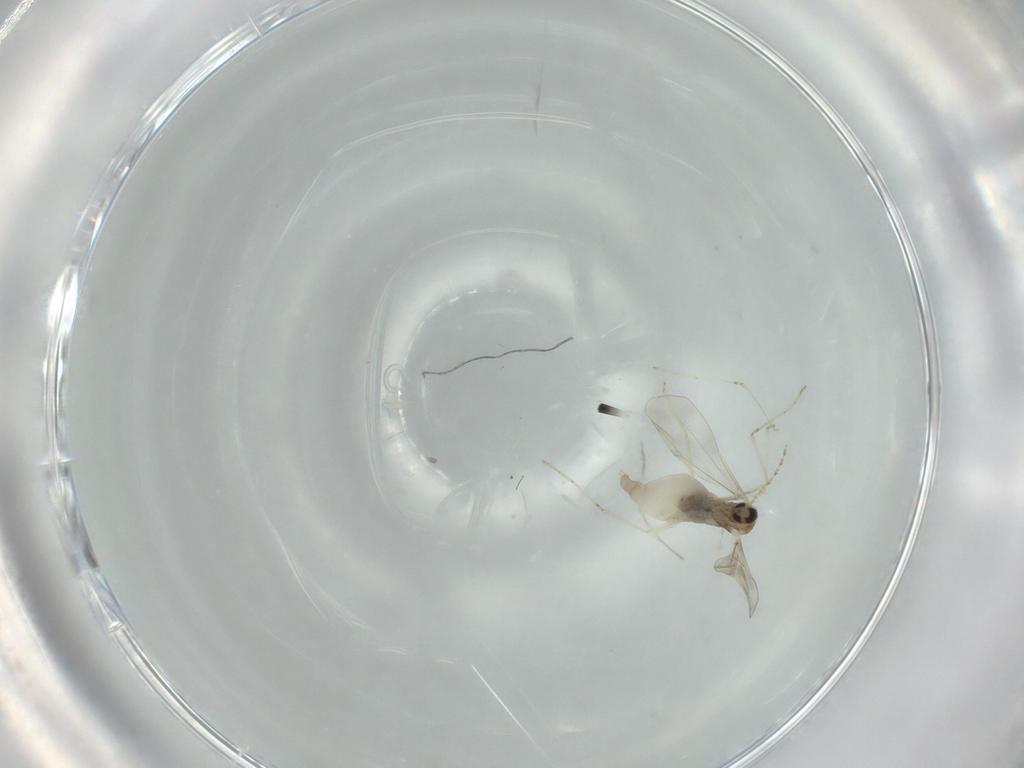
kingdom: Animalia
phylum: Arthropoda
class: Insecta
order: Diptera
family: Cecidomyiidae
